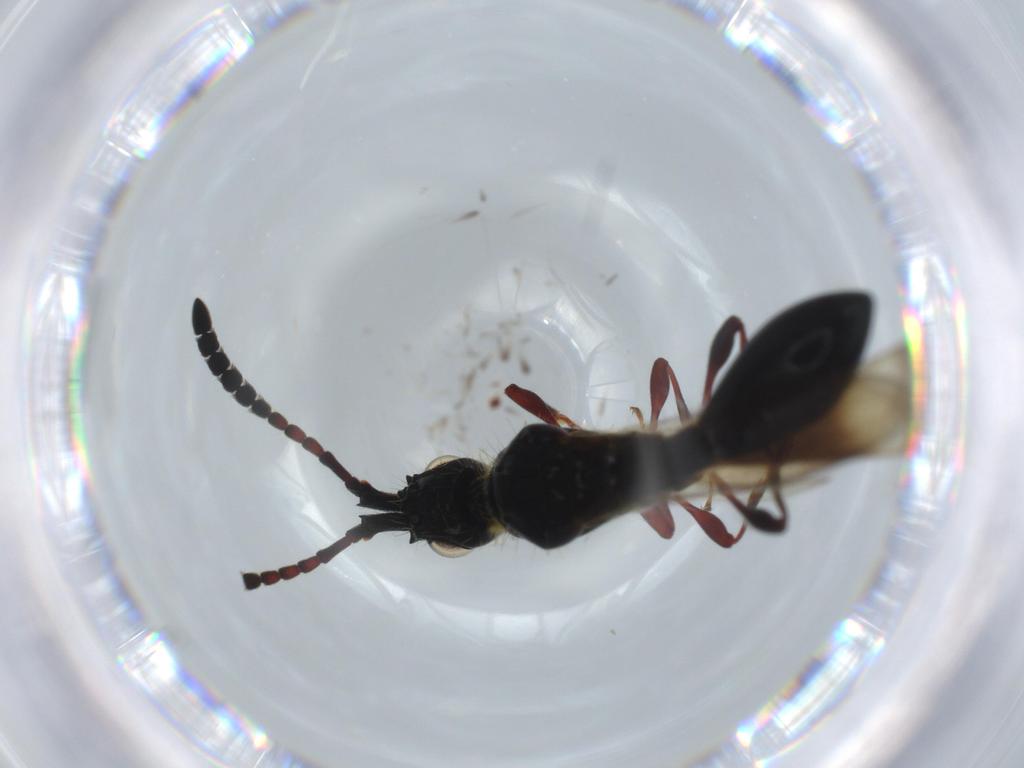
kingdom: Animalia
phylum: Arthropoda
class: Insecta
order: Hymenoptera
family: Diapriidae
